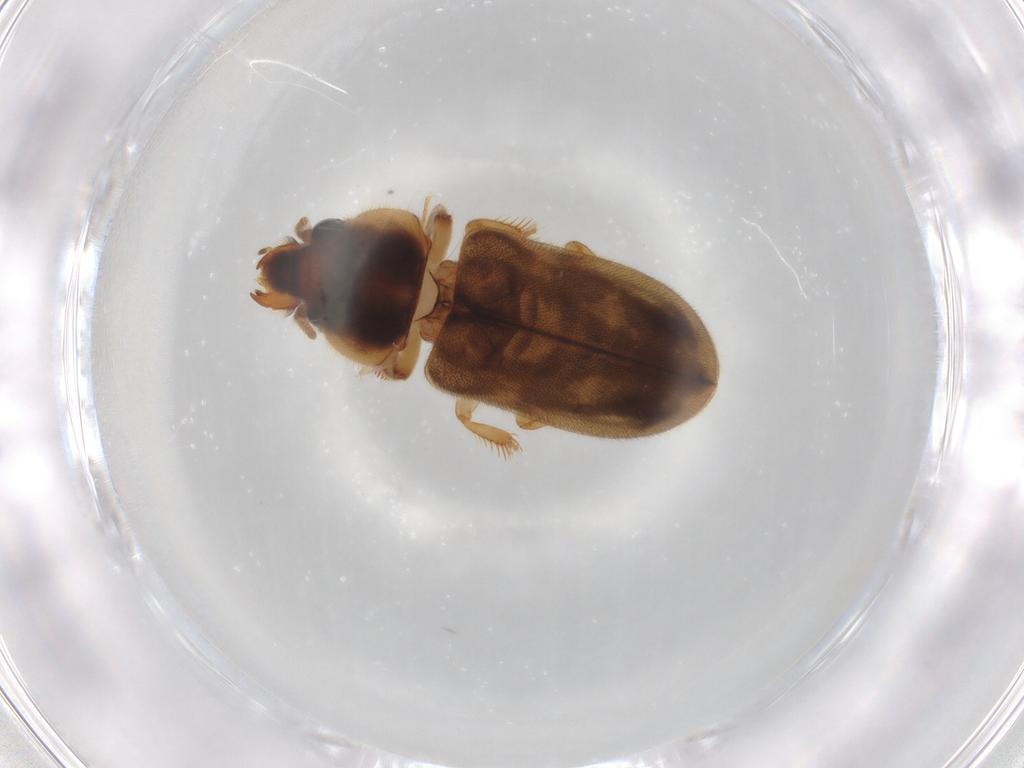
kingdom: Animalia
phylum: Arthropoda
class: Insecta
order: Coleoptera
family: Heteroceridae
